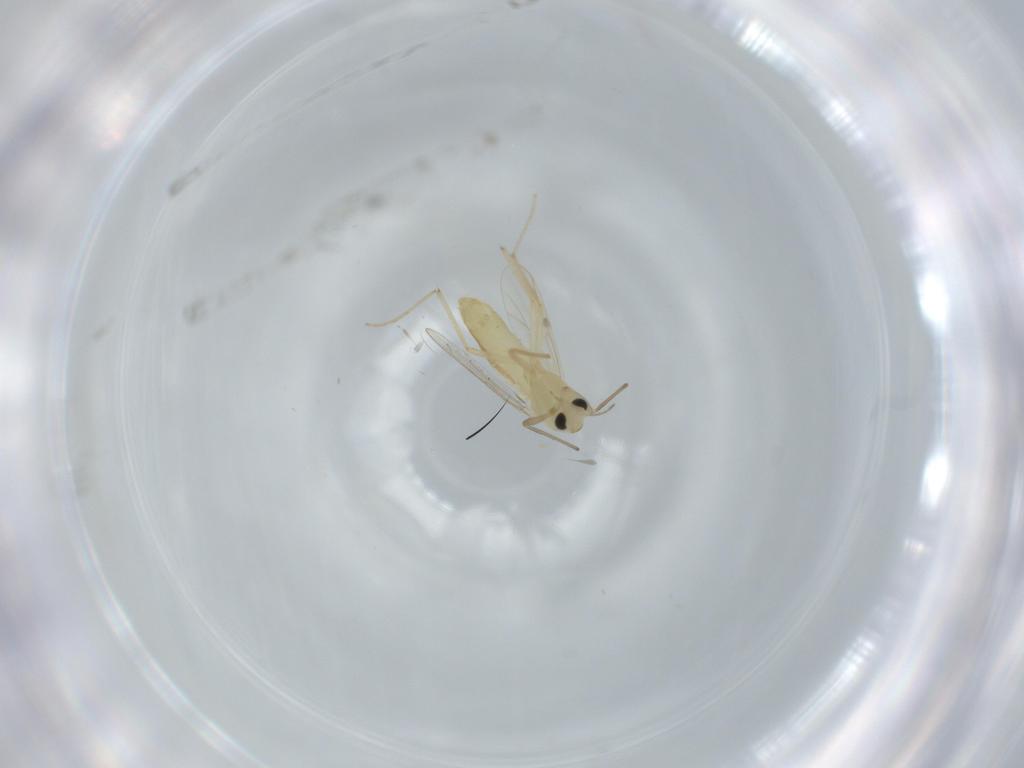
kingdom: Animalia
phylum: Arthropoda
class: Insecta
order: Diptera
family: Chironomidae
